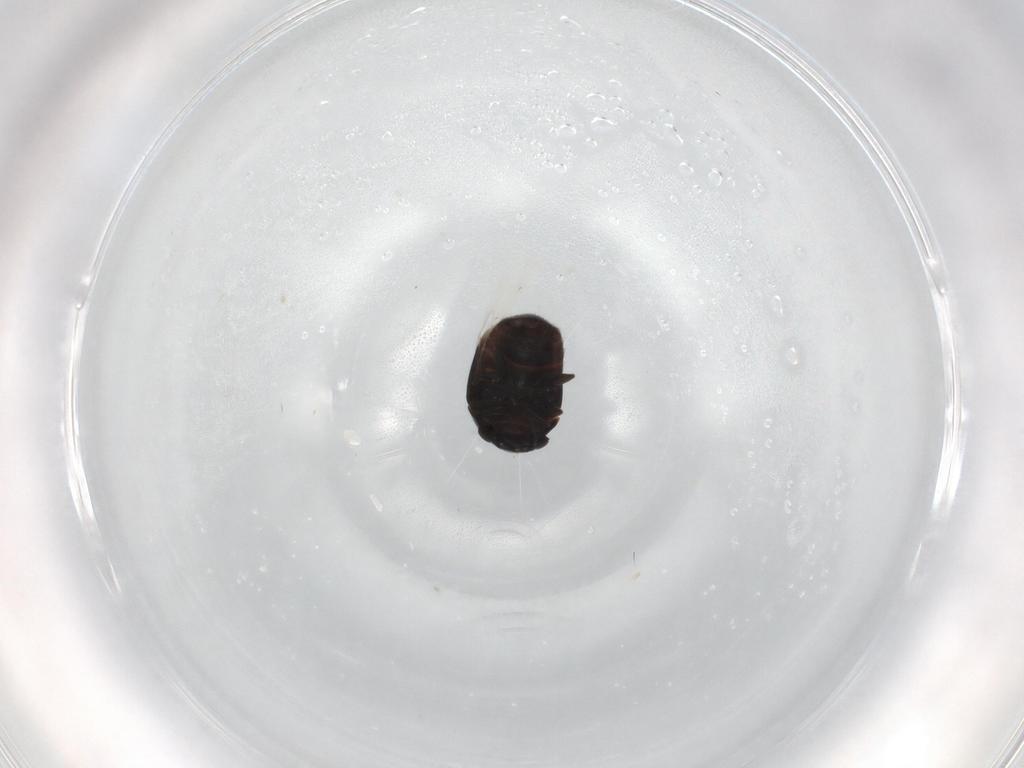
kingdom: Animalia
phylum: Arthropoda
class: Insecta
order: Coleoptera
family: Cybocephalidae
